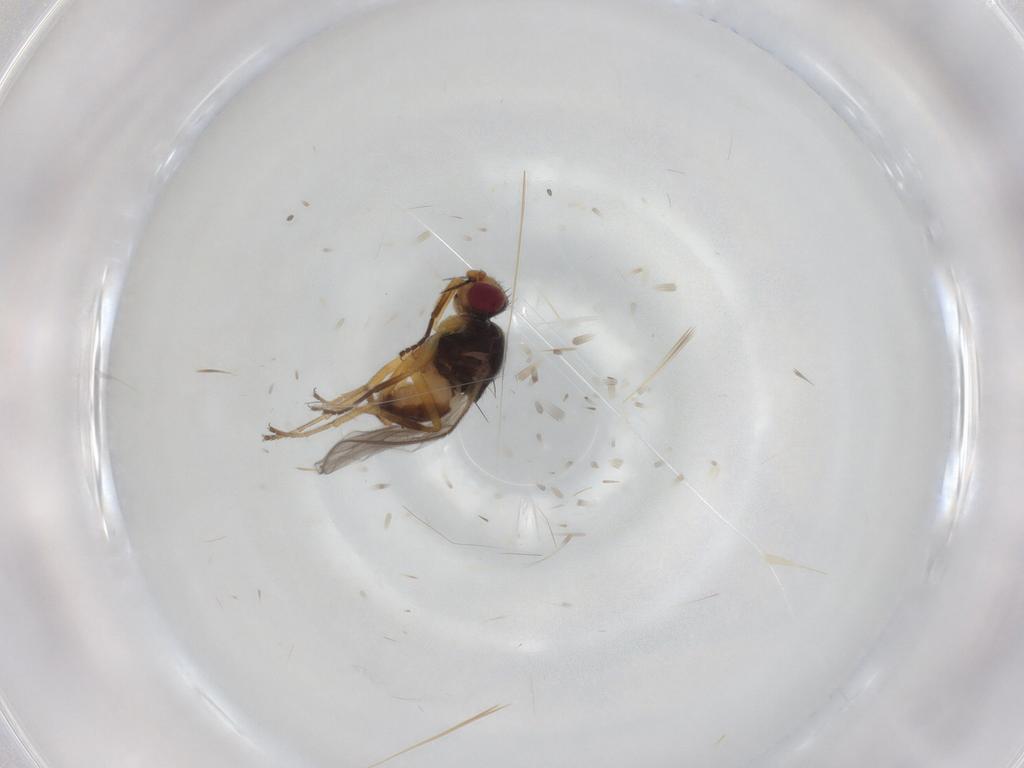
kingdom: Animalia
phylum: Arthropoda
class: Insecta
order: Diptera
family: Chloropidae
